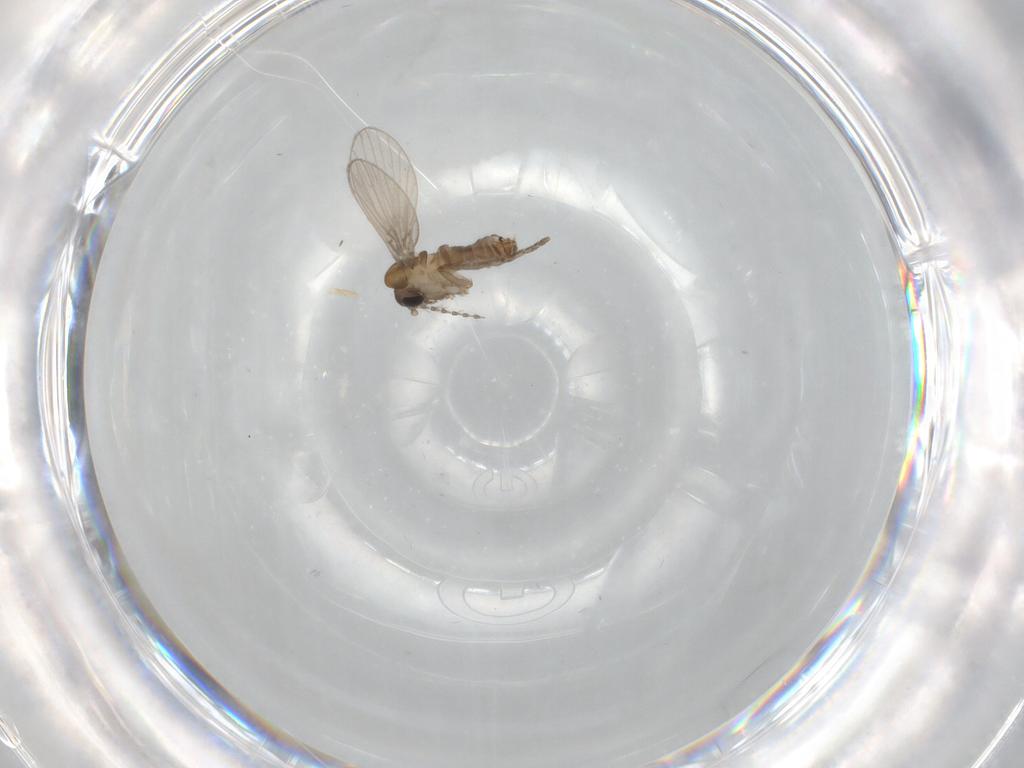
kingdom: Animalia
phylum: Arthropoda
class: Insecta
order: Diptera
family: Psychodidae
